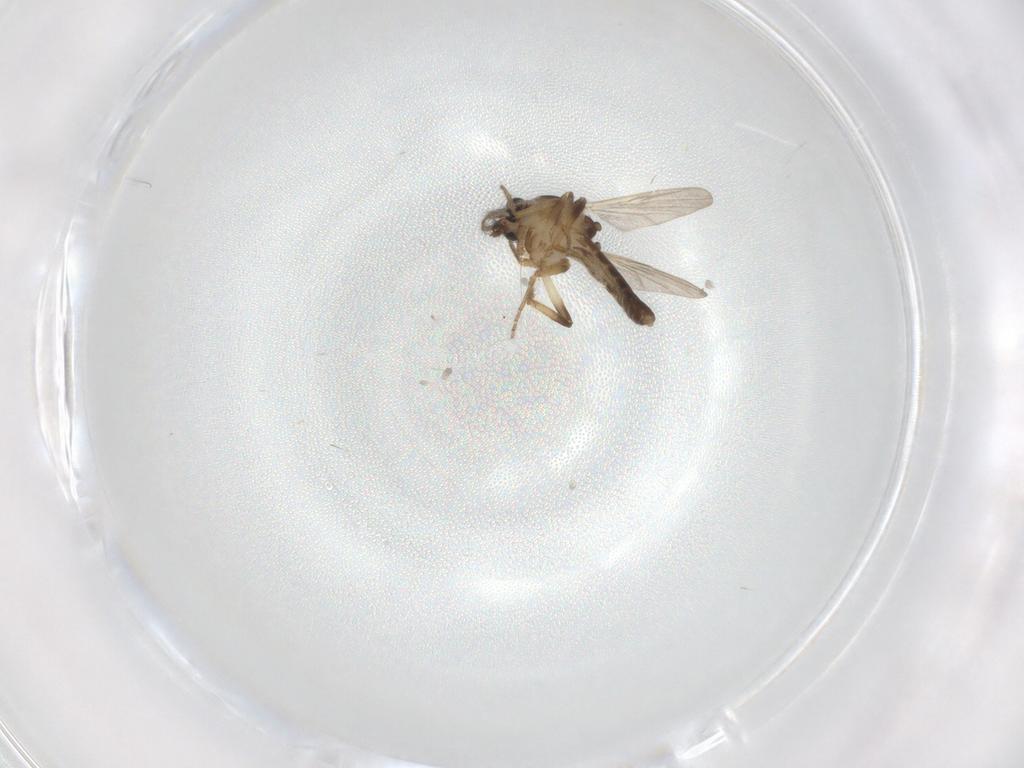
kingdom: Animalia
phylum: Arthropoda
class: Insecta
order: Diptera
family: Ceratopogonidae
